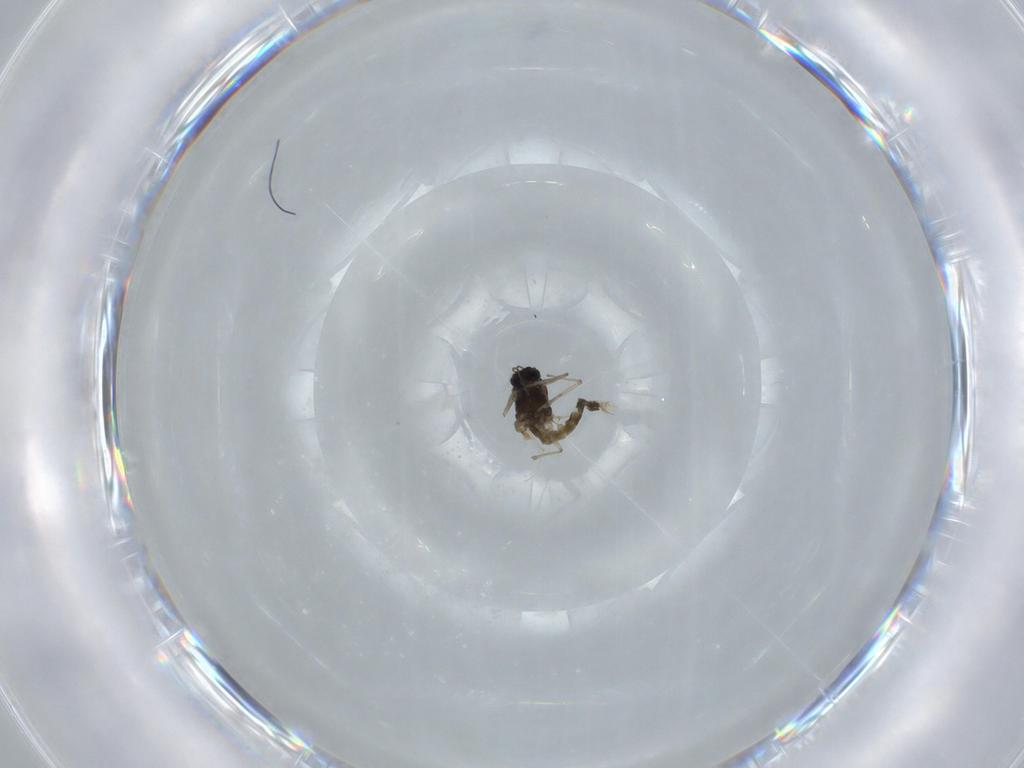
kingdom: Animalia
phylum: Arthropoda
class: Insecta
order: Diptera
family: Chironomidae
